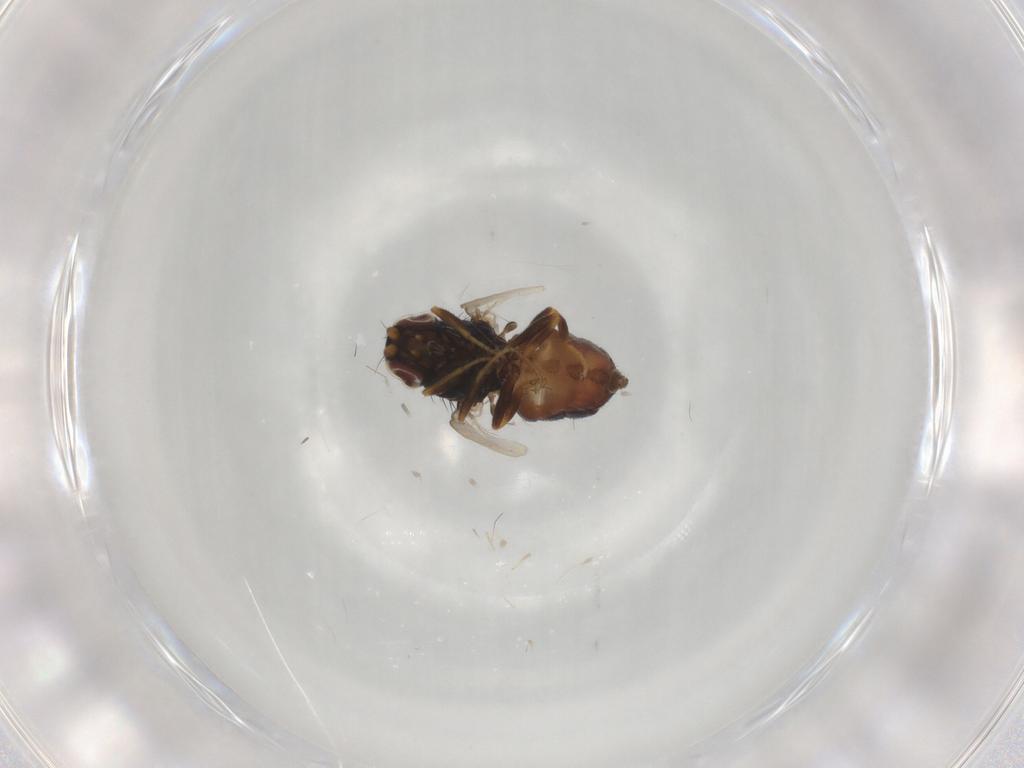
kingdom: Animalia
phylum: Arthropoda
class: Insecta
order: Diptera
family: Chloropidae
